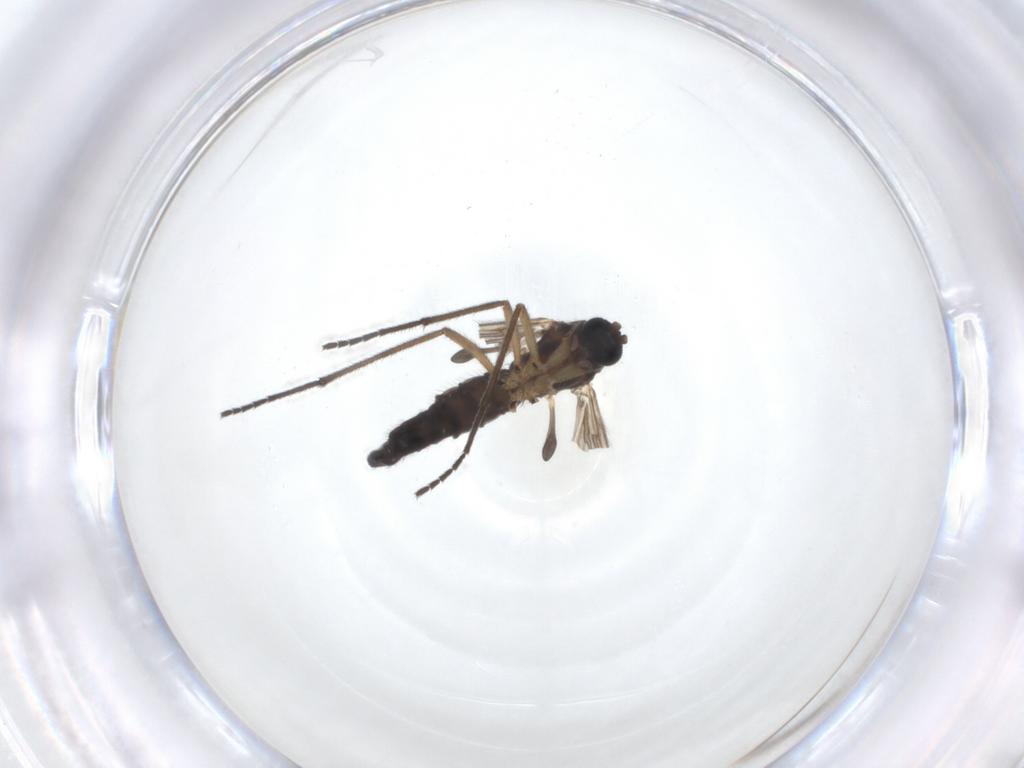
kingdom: Animalia
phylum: Arthropoda
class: Insecta
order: Diptera
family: Sciaridae
